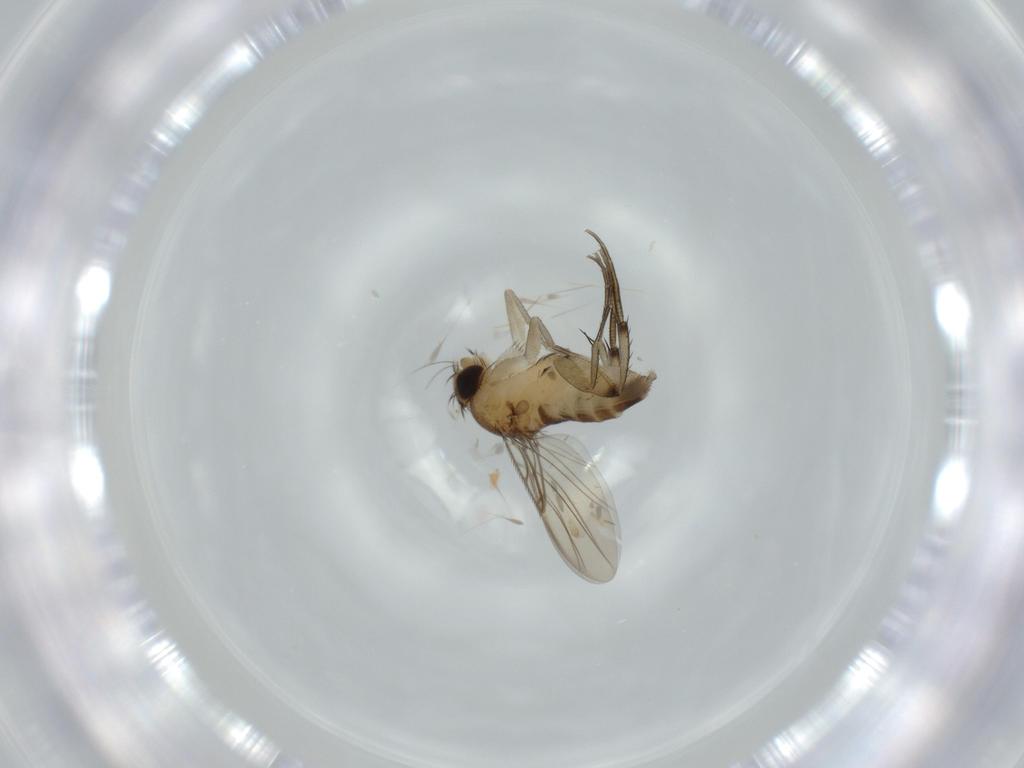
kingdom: Animalia
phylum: Arthropoda
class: Insecta
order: Diptera
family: Phoridae
